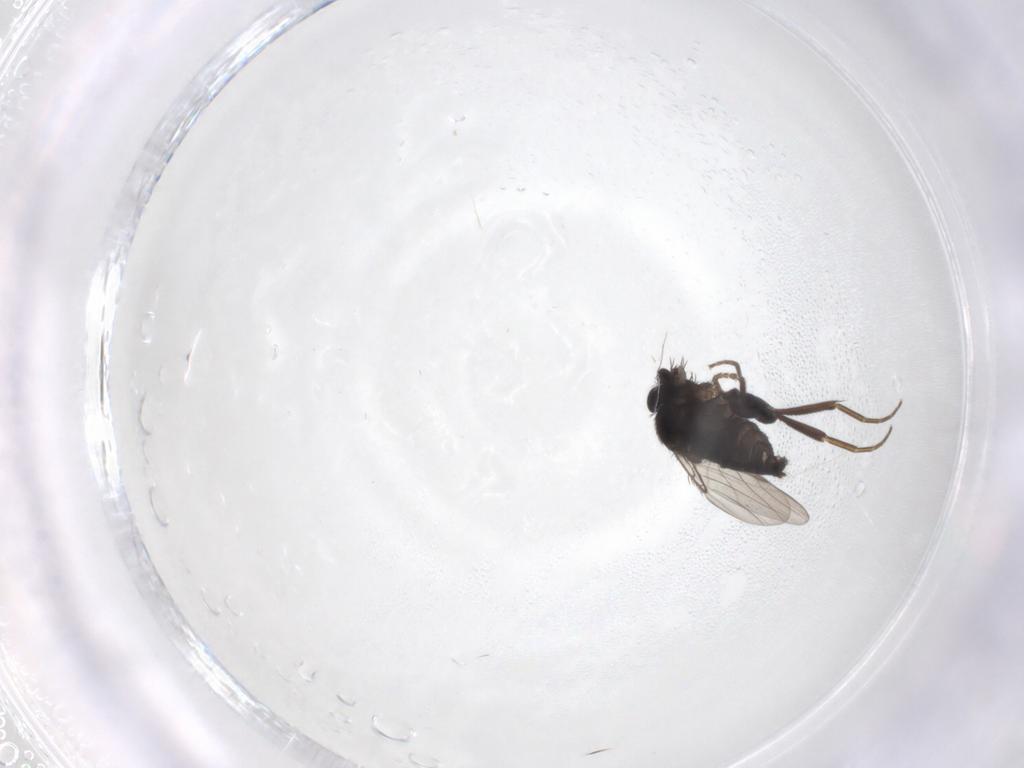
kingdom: Animalia
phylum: Arthropoda
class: Insecta
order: Diptera
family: Phoridae
